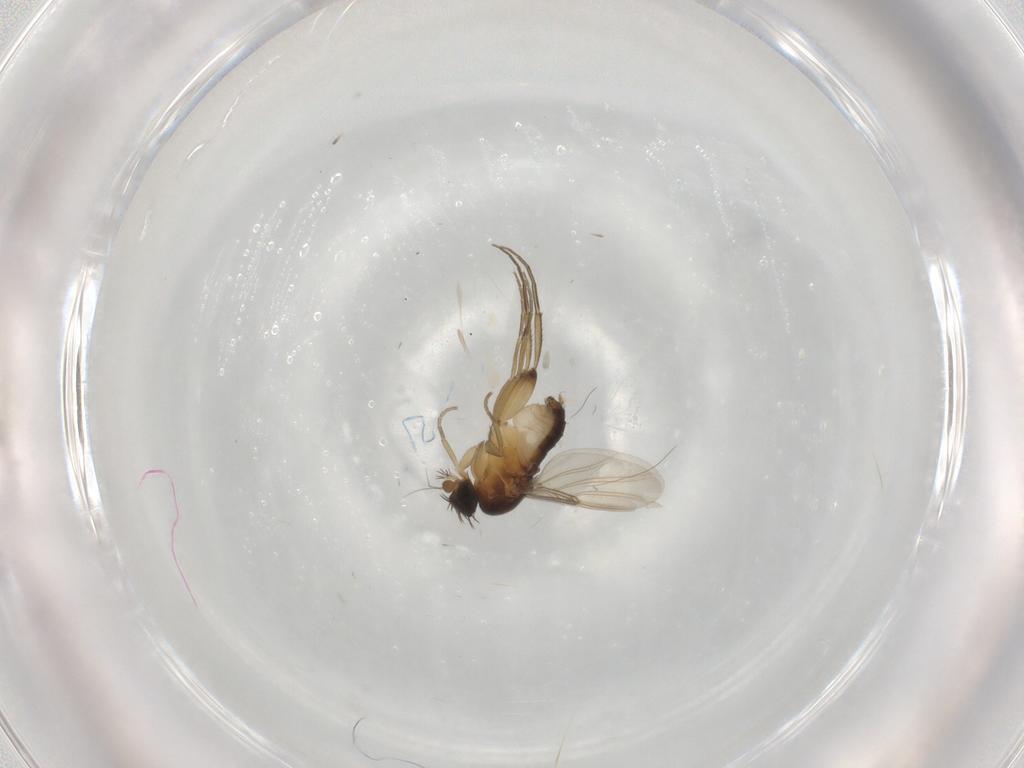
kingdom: Animalia
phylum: Arthropoda
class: Insecta
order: Diptera
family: Phoridae
